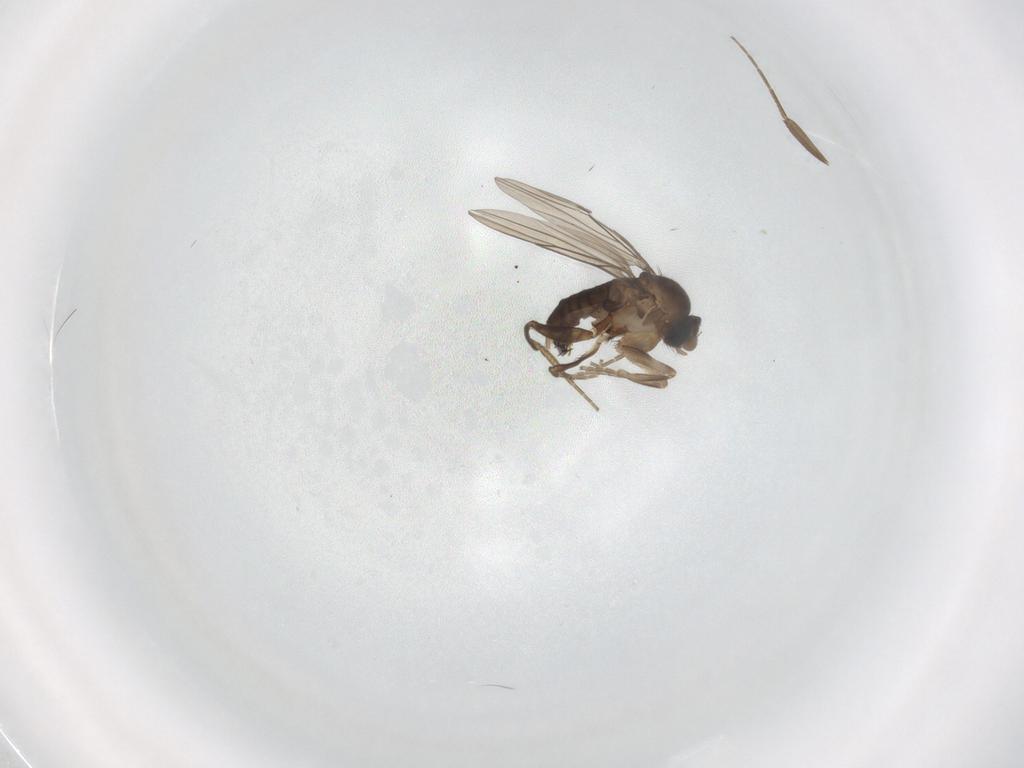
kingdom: Animalia
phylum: Arthropoda
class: Insecta
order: Diptera
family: Phoridae
